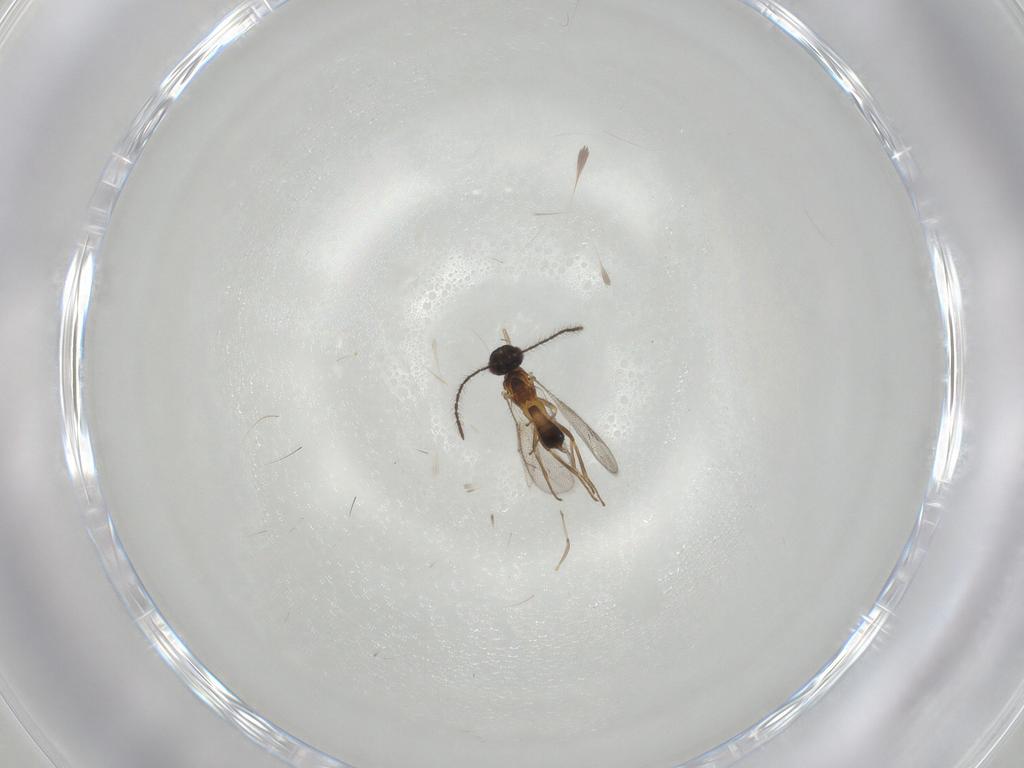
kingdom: Animalia
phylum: Arthropoda
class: Insecta
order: Hymenoptera
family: Eupelmidae
